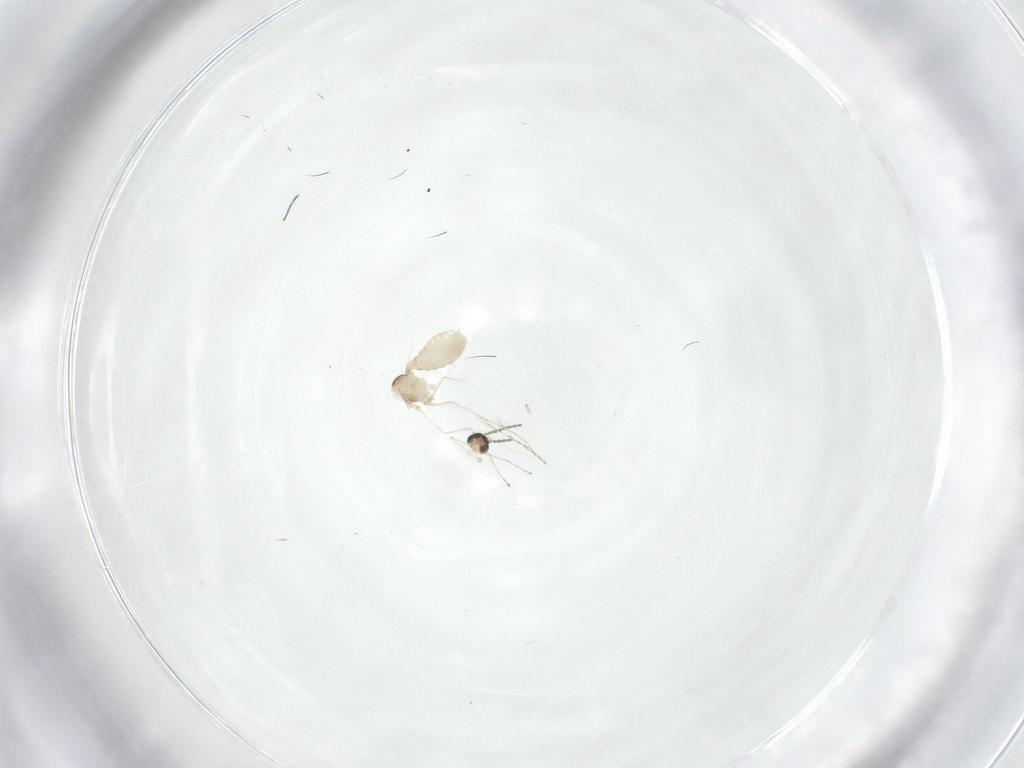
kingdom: Animalia
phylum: Arthropoda
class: Insecta
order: Diptera
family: Cecidomyiidae
